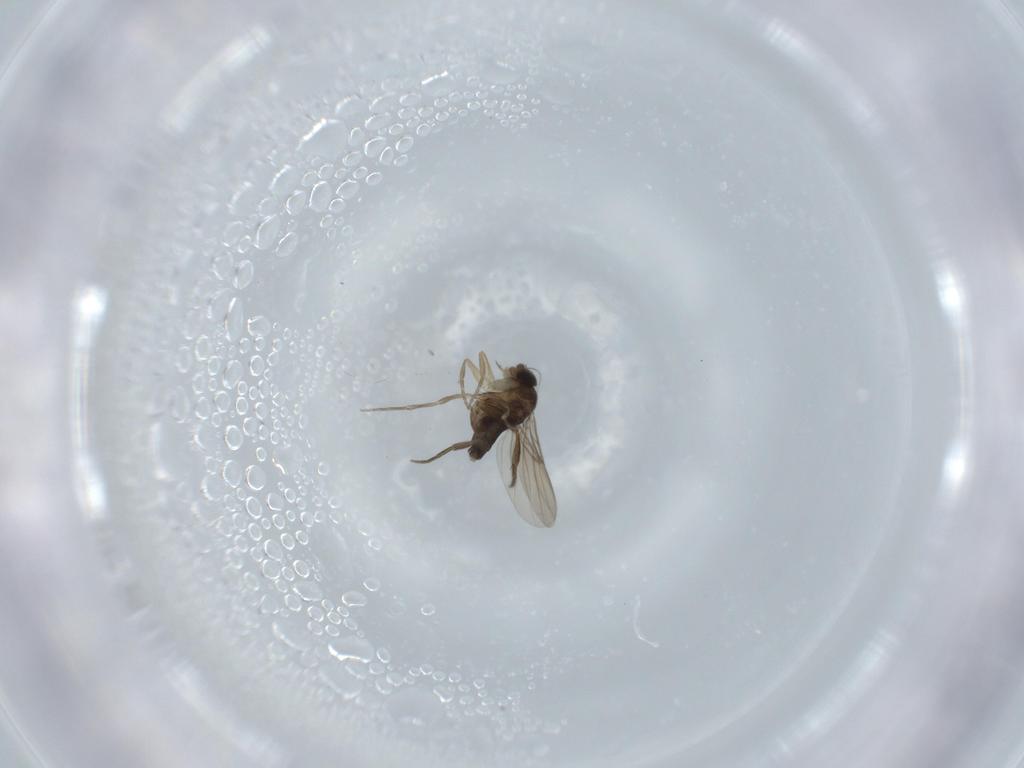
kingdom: Animalia
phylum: Arthropoda
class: Insecta
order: Diptera
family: Phoridae
